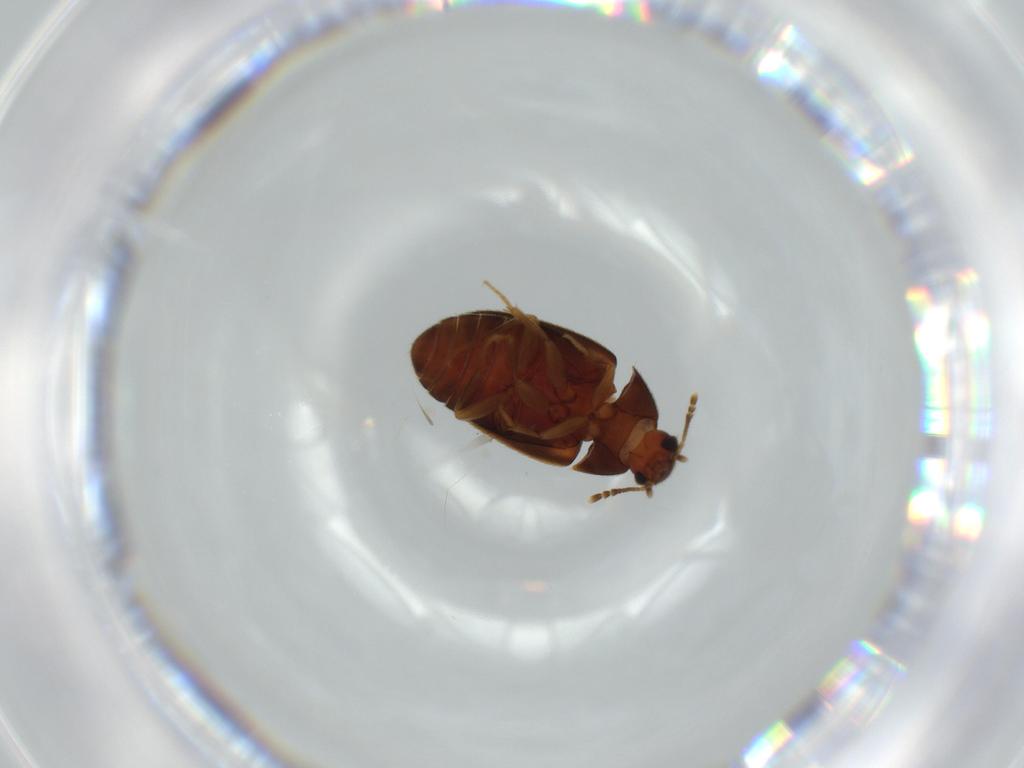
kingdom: Animalia
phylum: Arthropoda
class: Insecta
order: Coleoptera
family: Mycetophagidae
